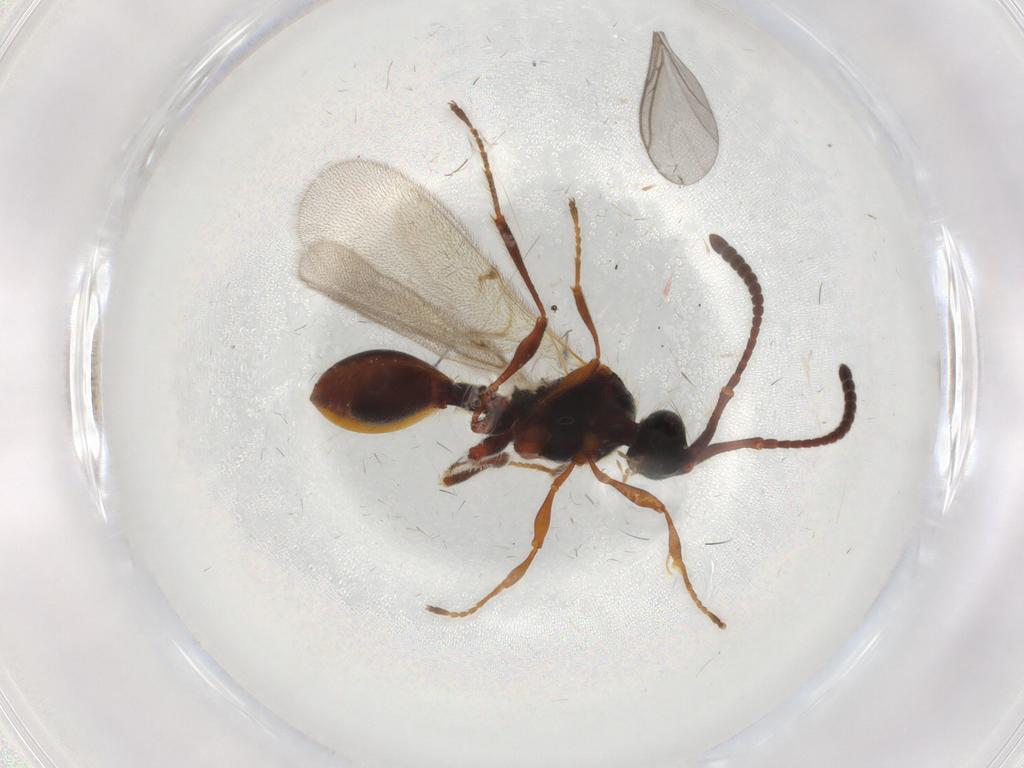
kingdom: Animalia
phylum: Arthropoda
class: Insecta
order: Hymenoptera
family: Diapriidae
